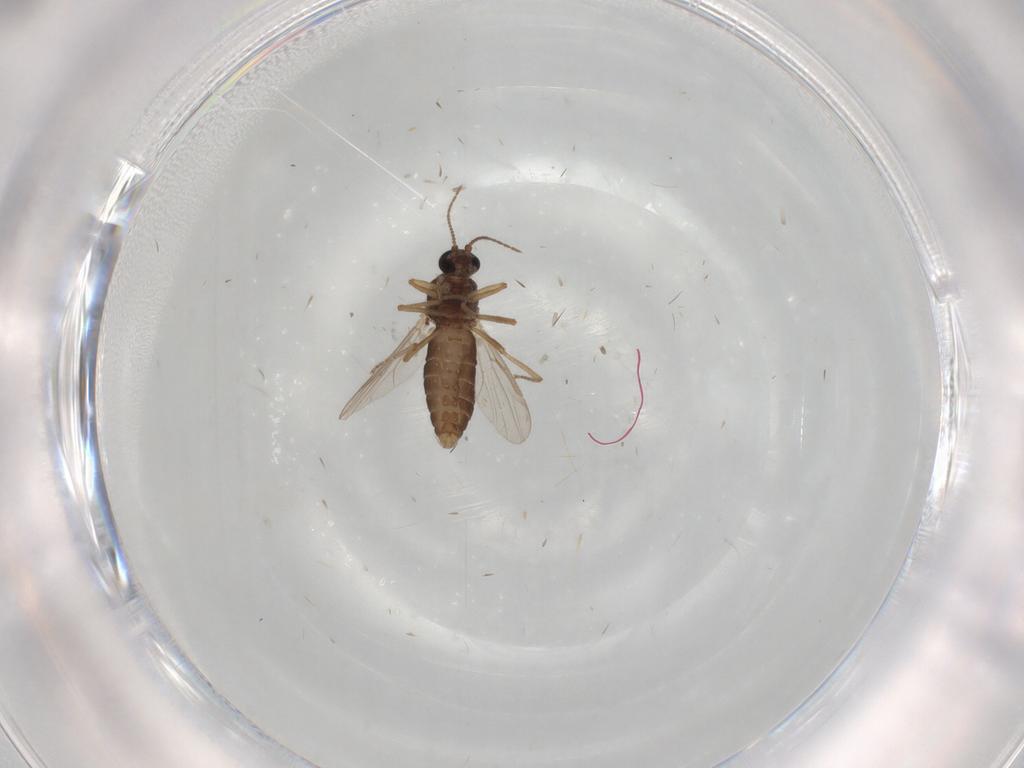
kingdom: Animalia
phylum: Arthropoda
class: Insecta
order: Diptera
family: Ceratopogonidae
